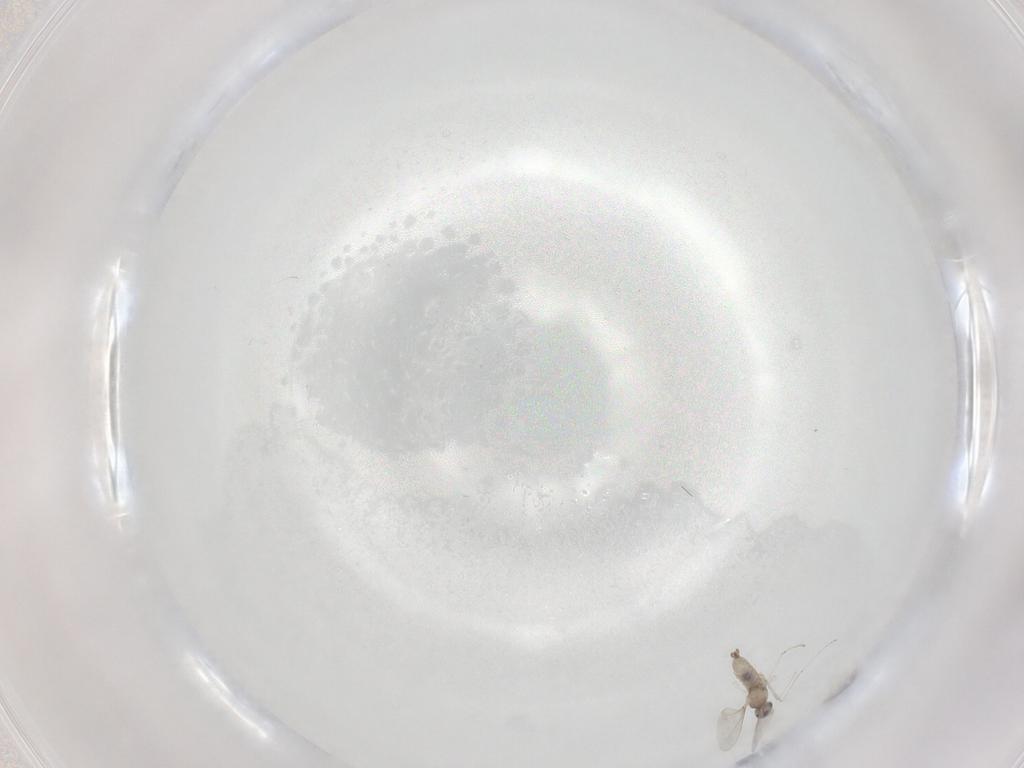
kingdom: Animalia
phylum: Arthropoda
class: Insecta
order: Diptera
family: Cecidomyiidae
